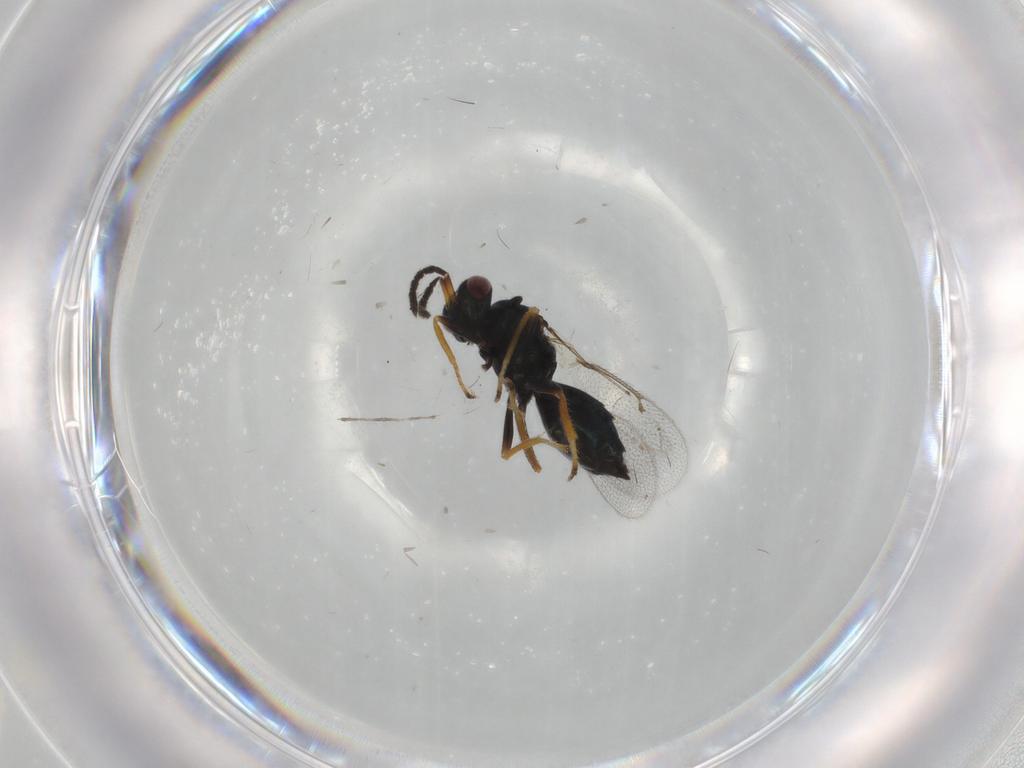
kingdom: Animalia
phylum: Arthropoda
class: Insecta
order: Hymenoptera
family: Eulophidae
